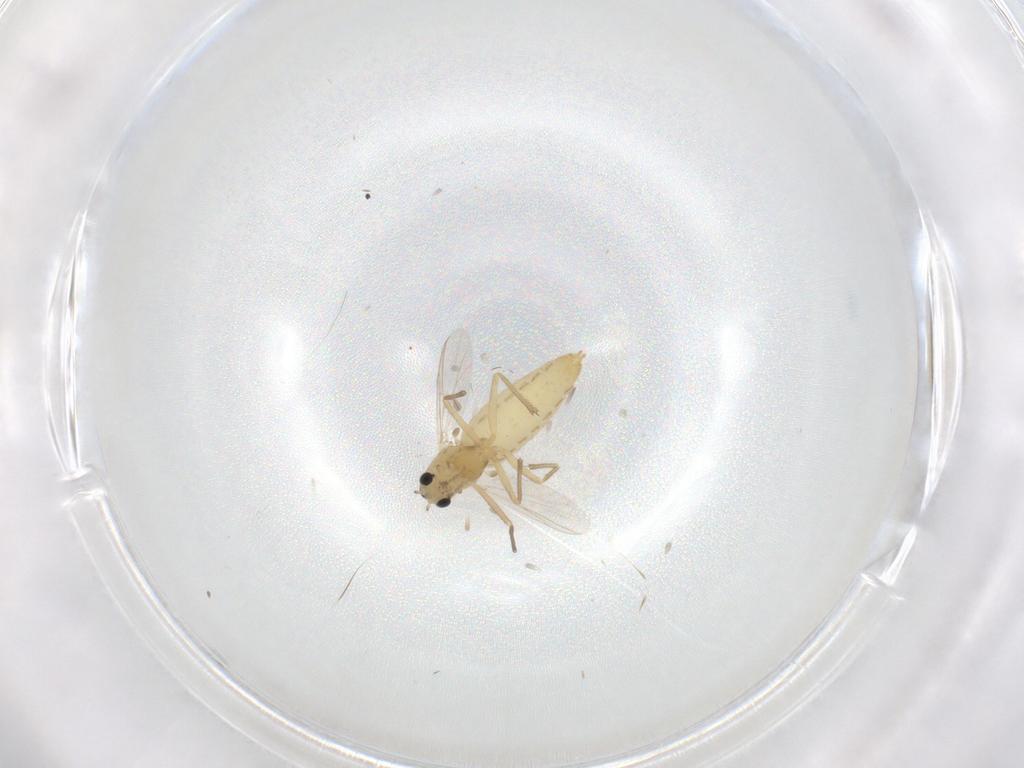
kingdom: Animalia
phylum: Arthropoda
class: Insecta
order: Diptera
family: Chironomidae
